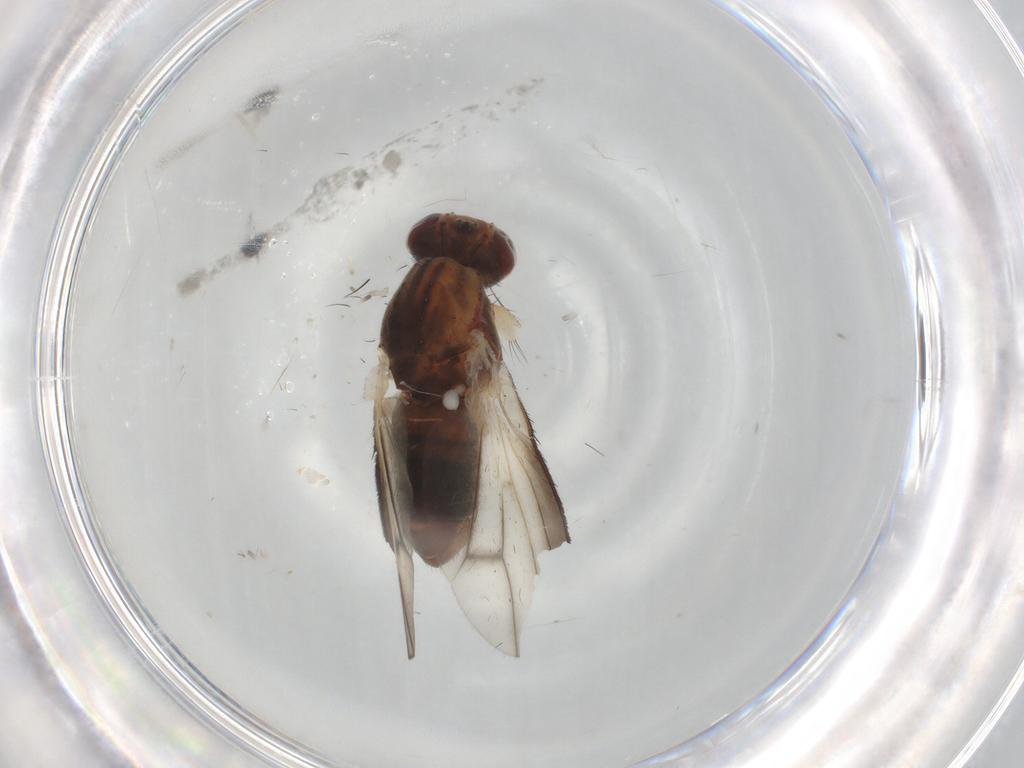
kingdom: Animalia
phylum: Arthropoda
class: Insecta
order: Diptera
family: Heleomyzidae
